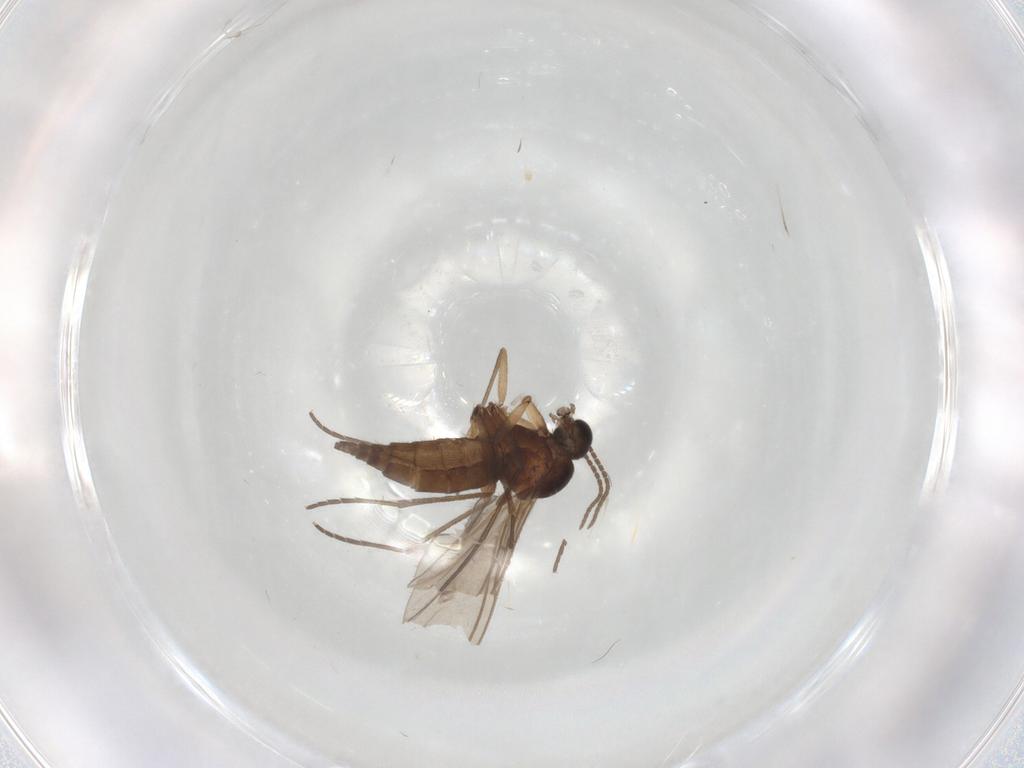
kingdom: Animalia
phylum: Arthropoda
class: Insecta
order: Diptera
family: Sciaridae
